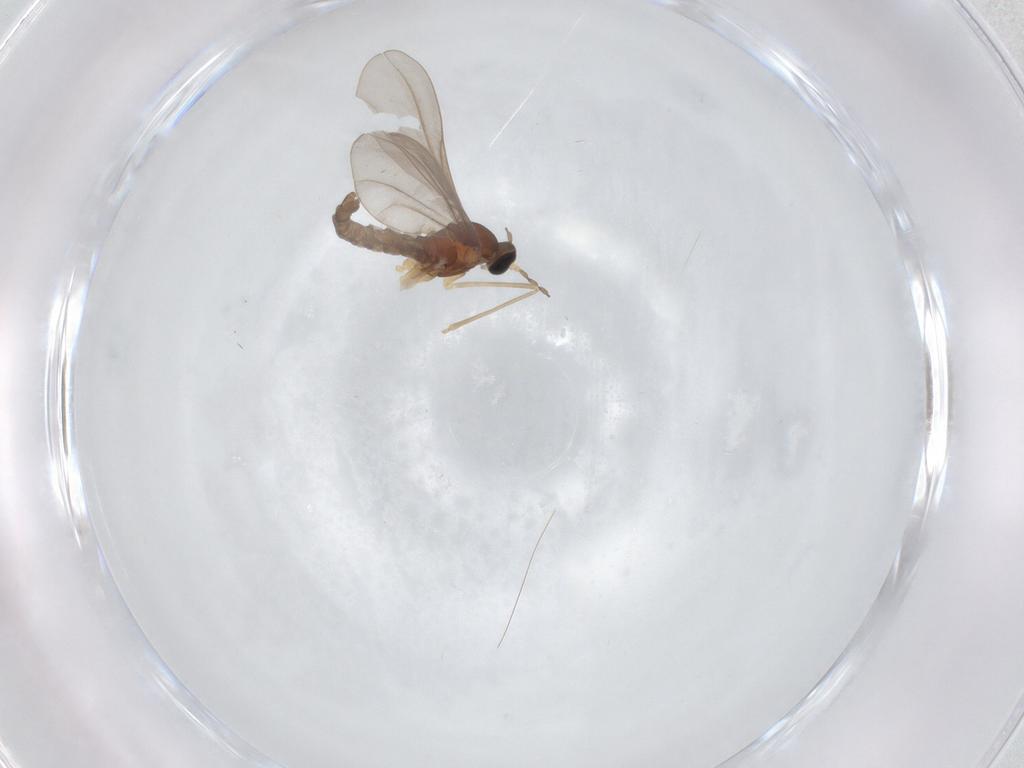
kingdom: Animalia
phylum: Arthropoda
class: Insecta
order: Diptera
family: Cecidomyiidae
